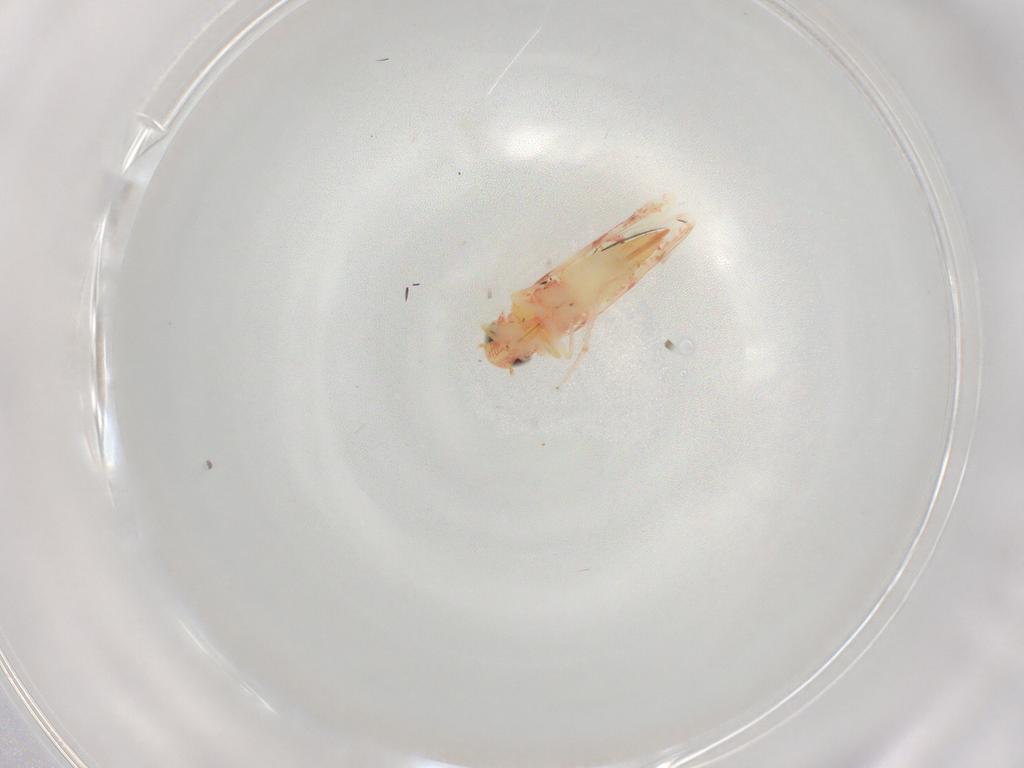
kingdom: Animalia
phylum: Arthropoda
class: Insecta
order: Hemiptera
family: Cicadellidae
